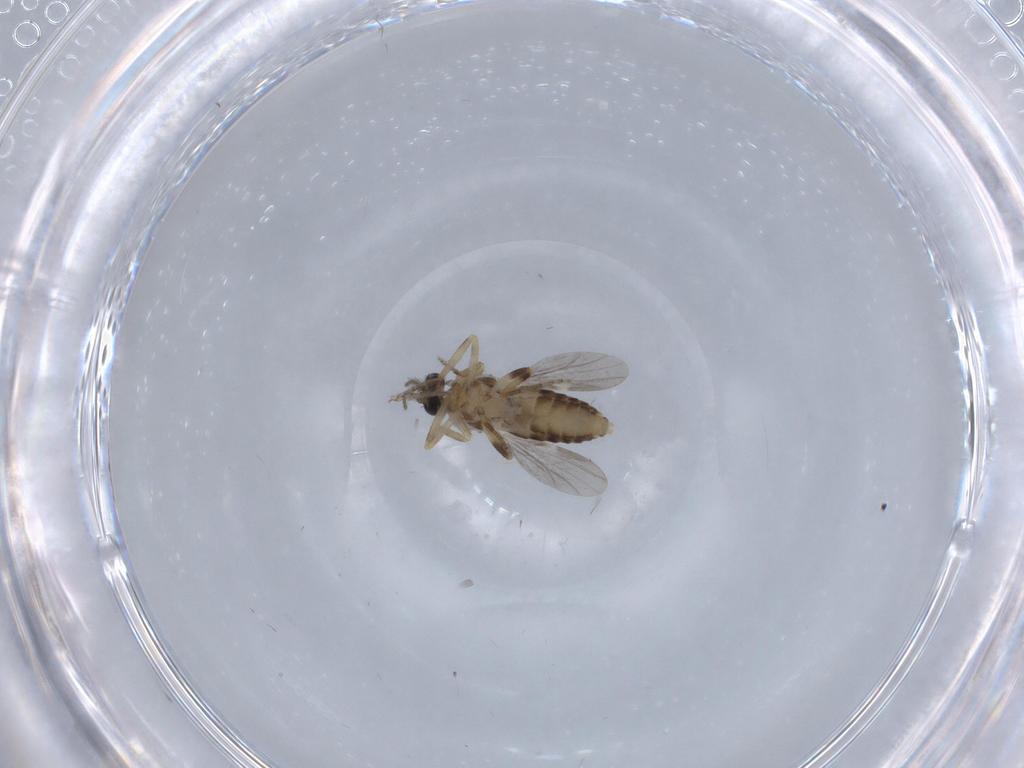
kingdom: Animalia
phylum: Arthropoda
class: Insecta
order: Diptera
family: Ceratopogonidae
